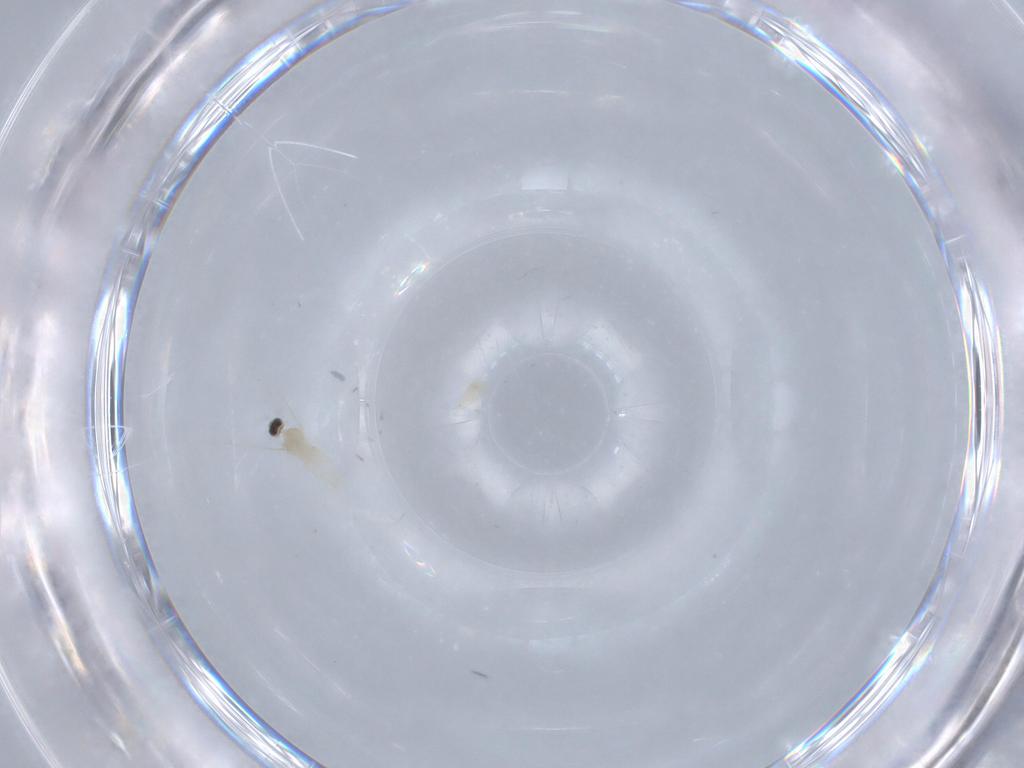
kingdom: Animalia
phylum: Arthropoda
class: Insecta
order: Diptera
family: Cecidomyiidae
